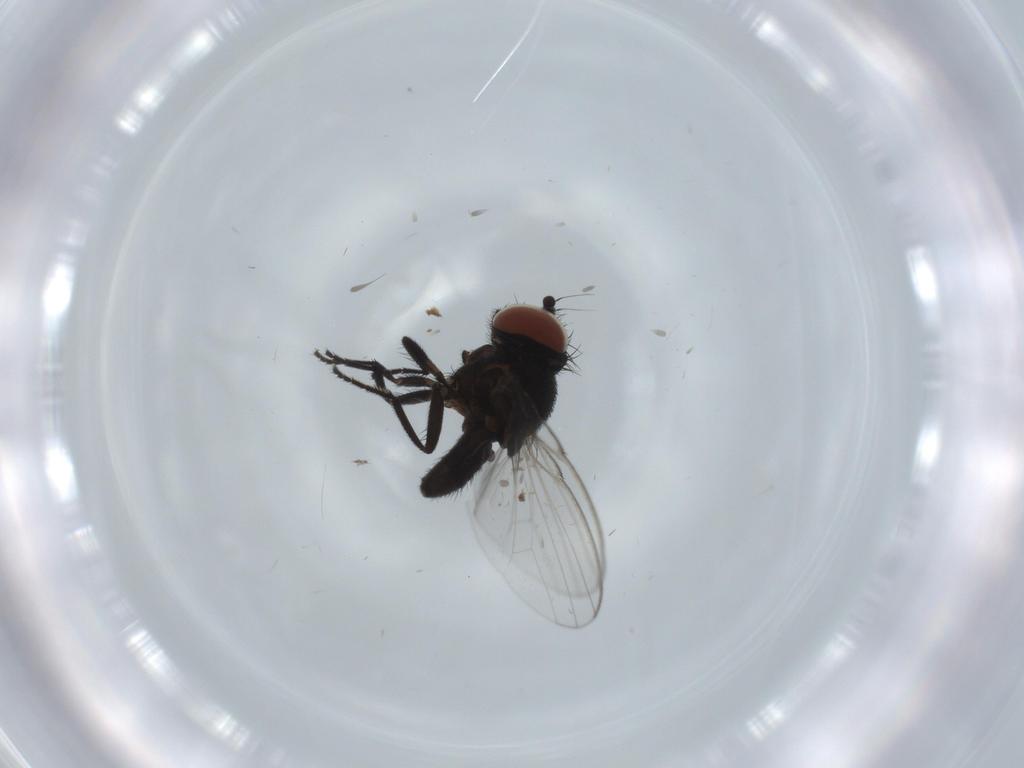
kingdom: Animalia
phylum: Arthropoda
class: Insecta
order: Diptera
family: Ceratopogonidae
